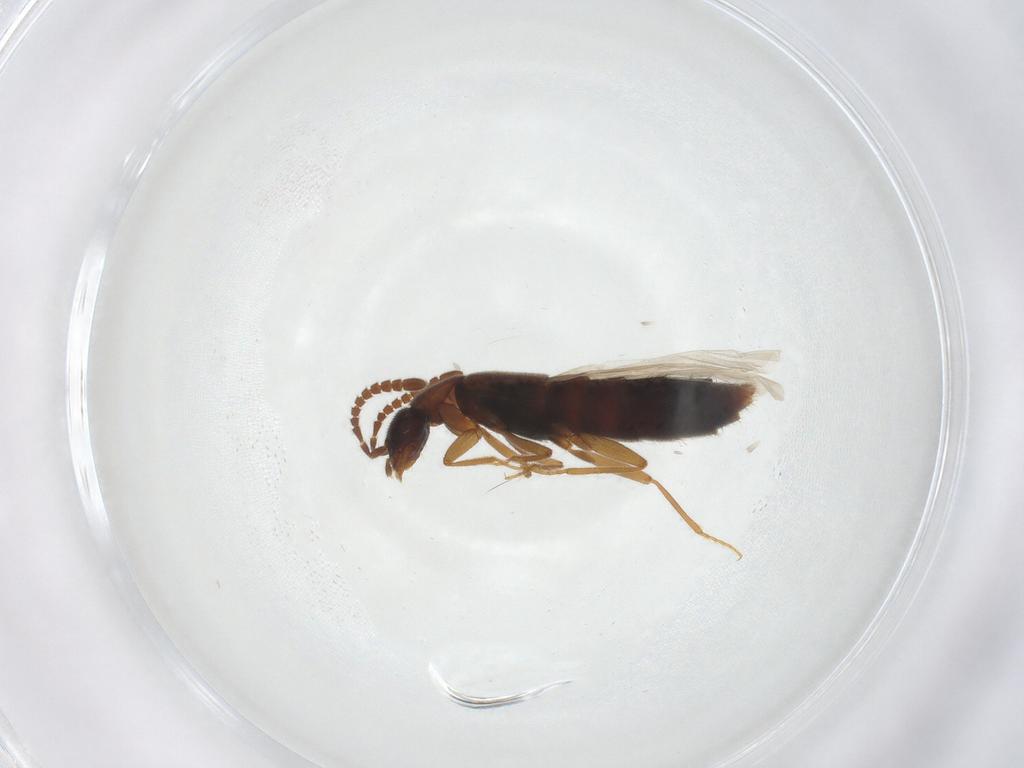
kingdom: Animalia
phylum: Arthropoda
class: Insecta
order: Coleoptera
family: Staphylinidae
